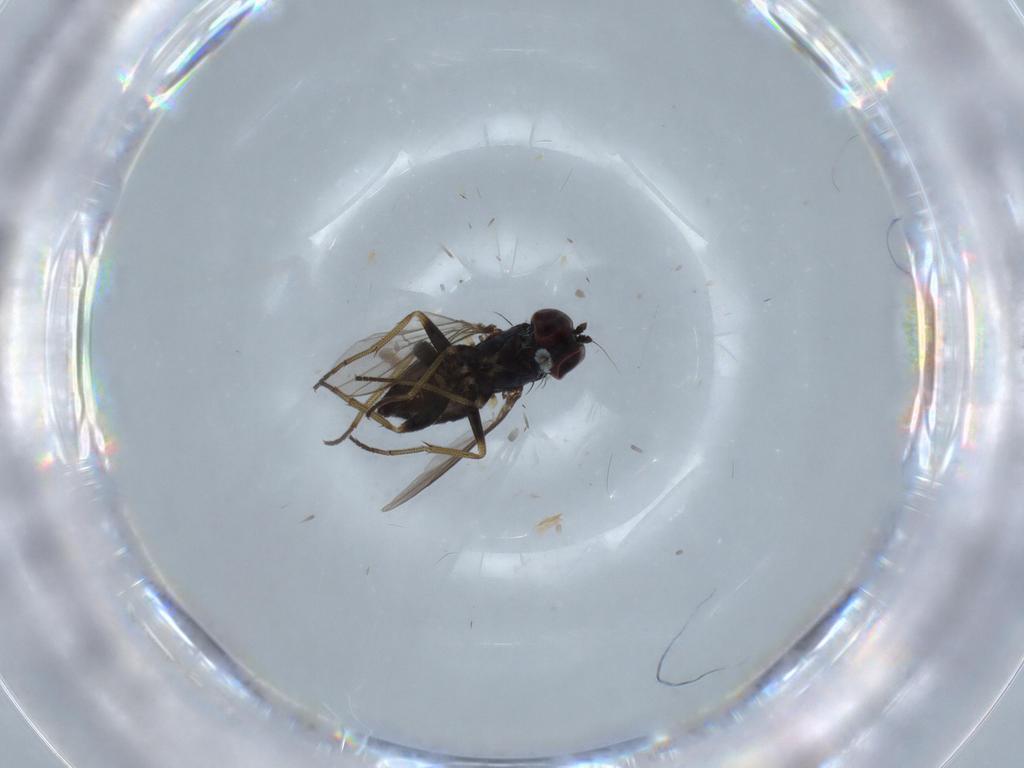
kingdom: Animalia
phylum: Arthropoda
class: Insecta
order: Diptera
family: Dolichopodidae
